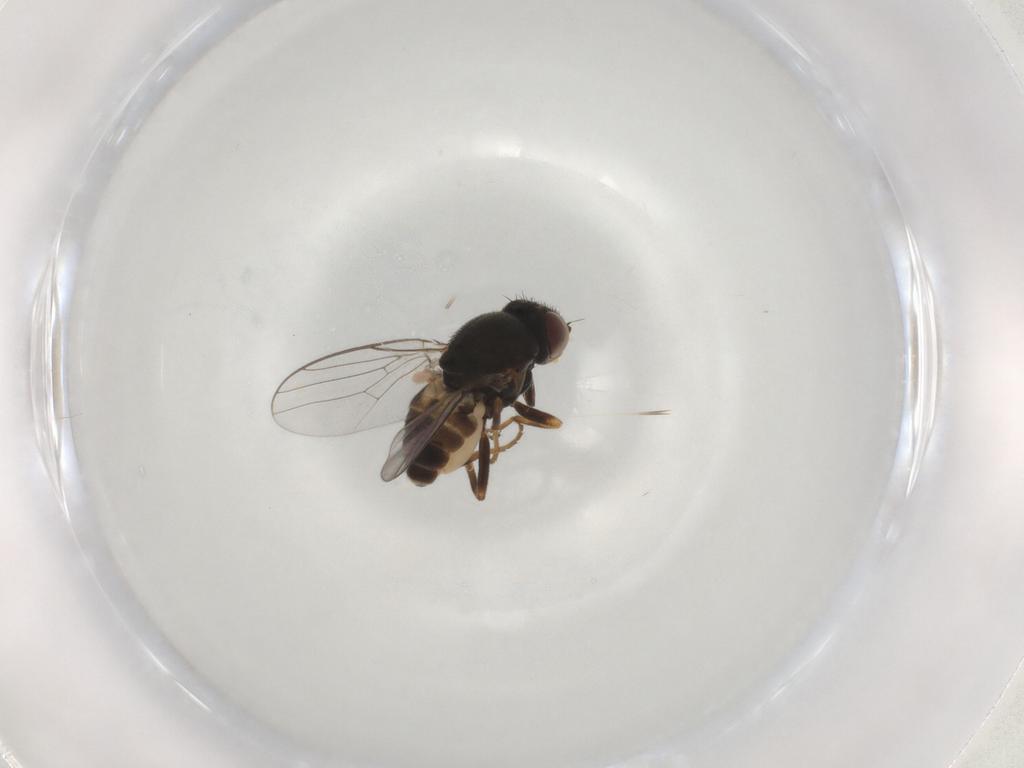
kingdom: Animalia
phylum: Arthropoda
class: Insecta
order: Diptera
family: Chloropidae
